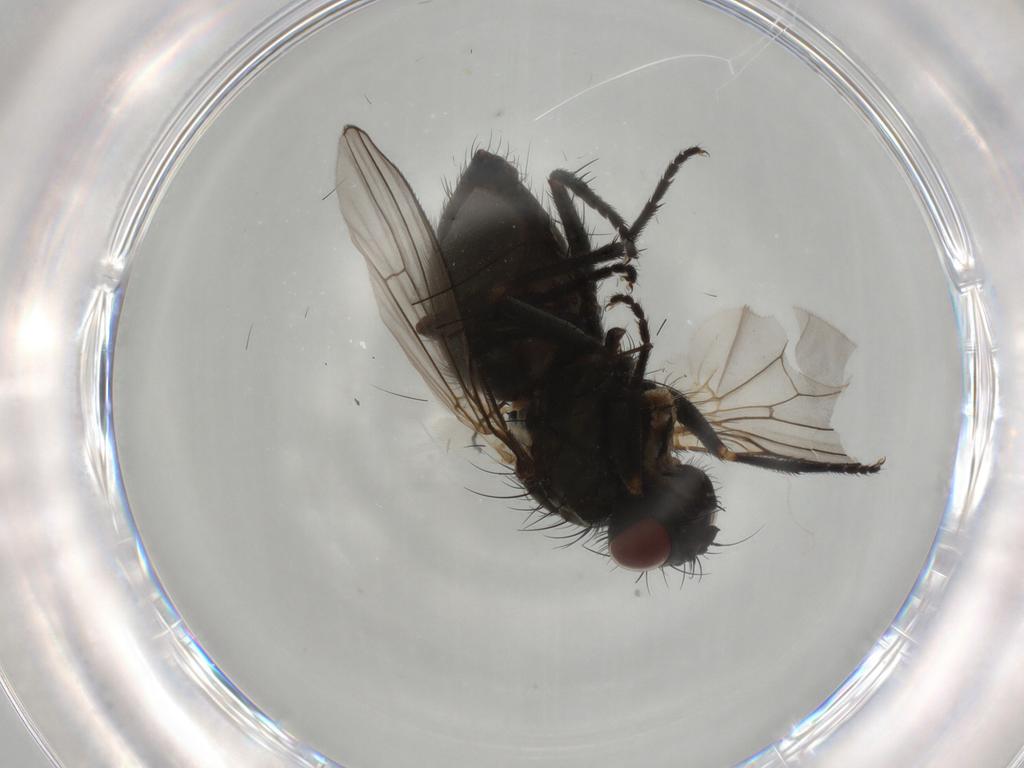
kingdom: Animalia
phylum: Arthropoda
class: Insecta
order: Diptera
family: Muscidae
